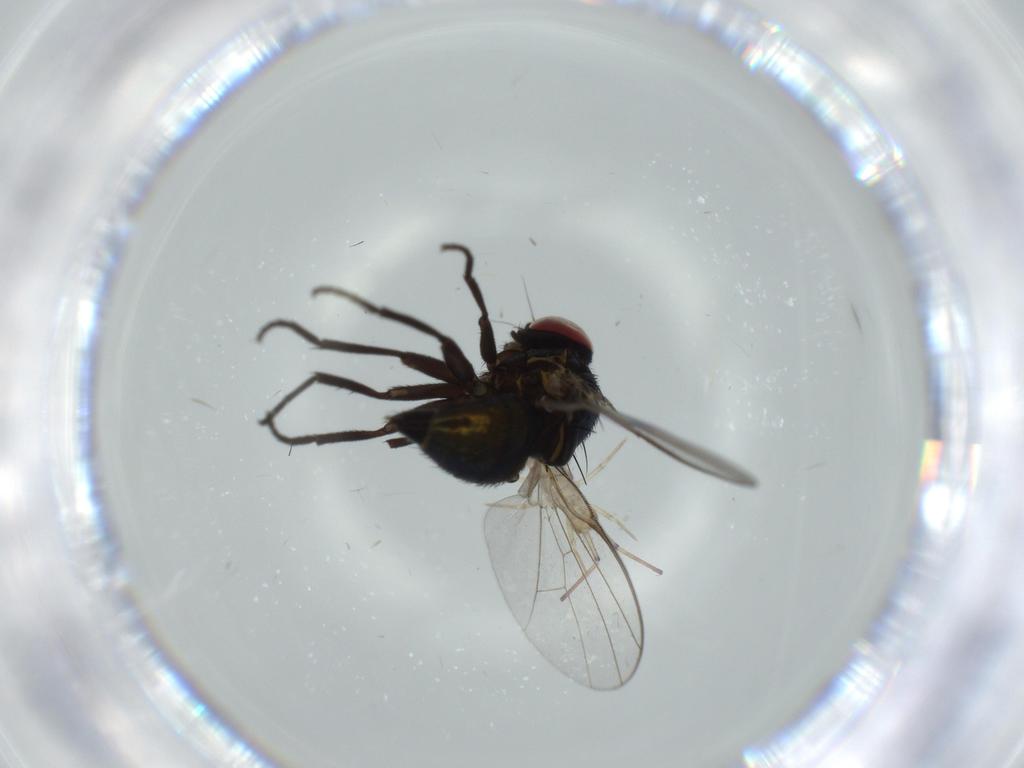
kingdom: Animalia
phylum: Arthropoda
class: Insecta
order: Diptera
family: Agromyzidae
